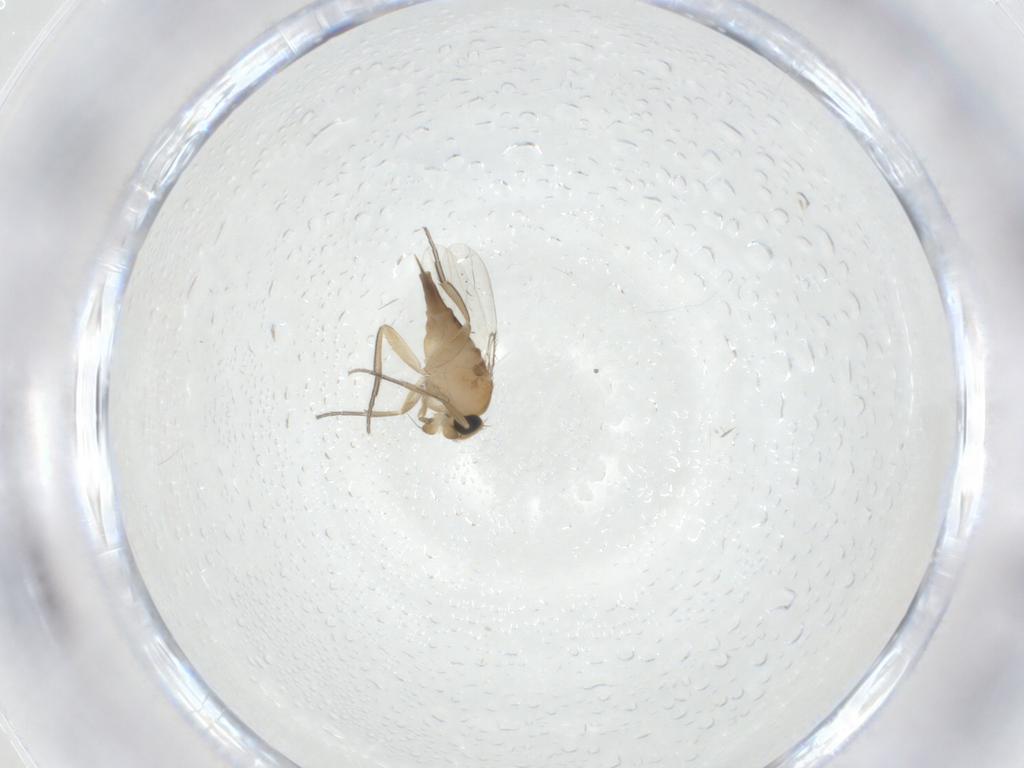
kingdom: Animalia
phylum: Arthropoda
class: Insecta
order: Diptera
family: Phoridae
